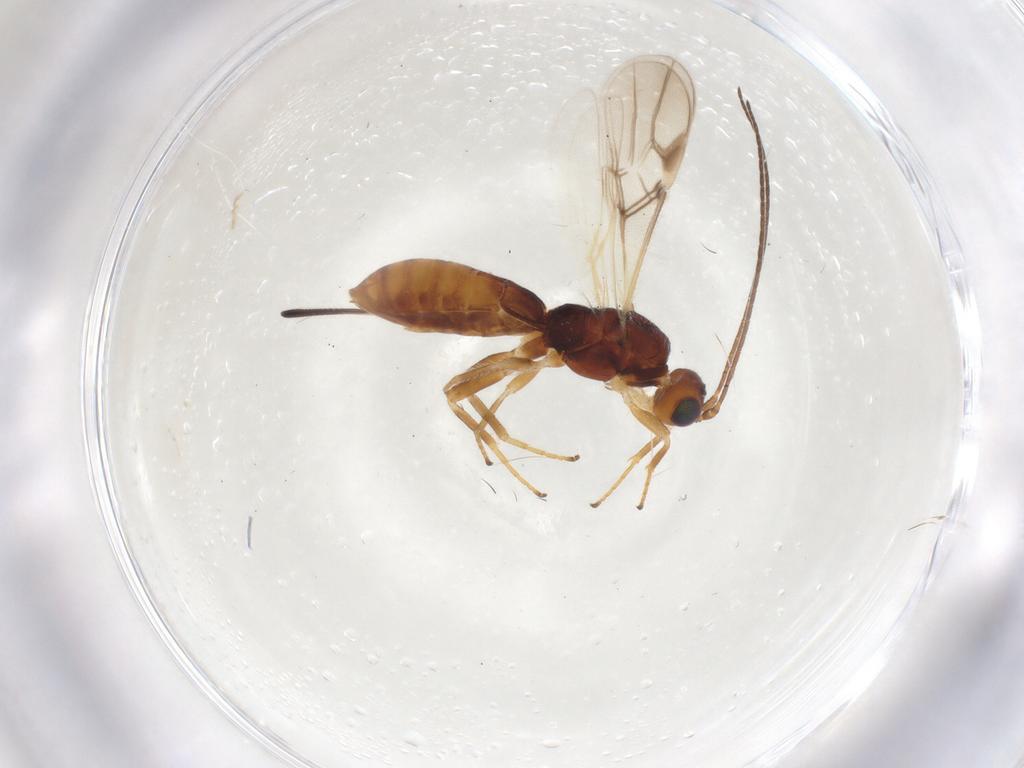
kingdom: Animalia
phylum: Arthropoda
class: Insecta
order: Hymenoptera
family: Braconidae
